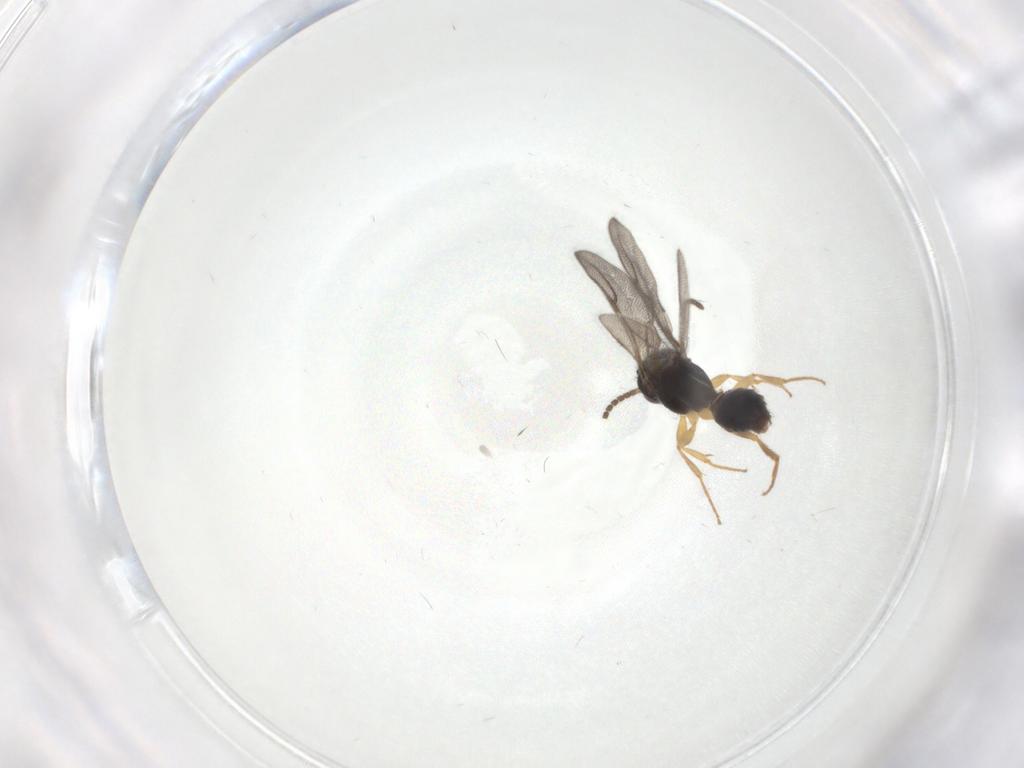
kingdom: Animalia
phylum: Arthropoda
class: Insecta
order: Hymenoptera
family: Bethylidae
